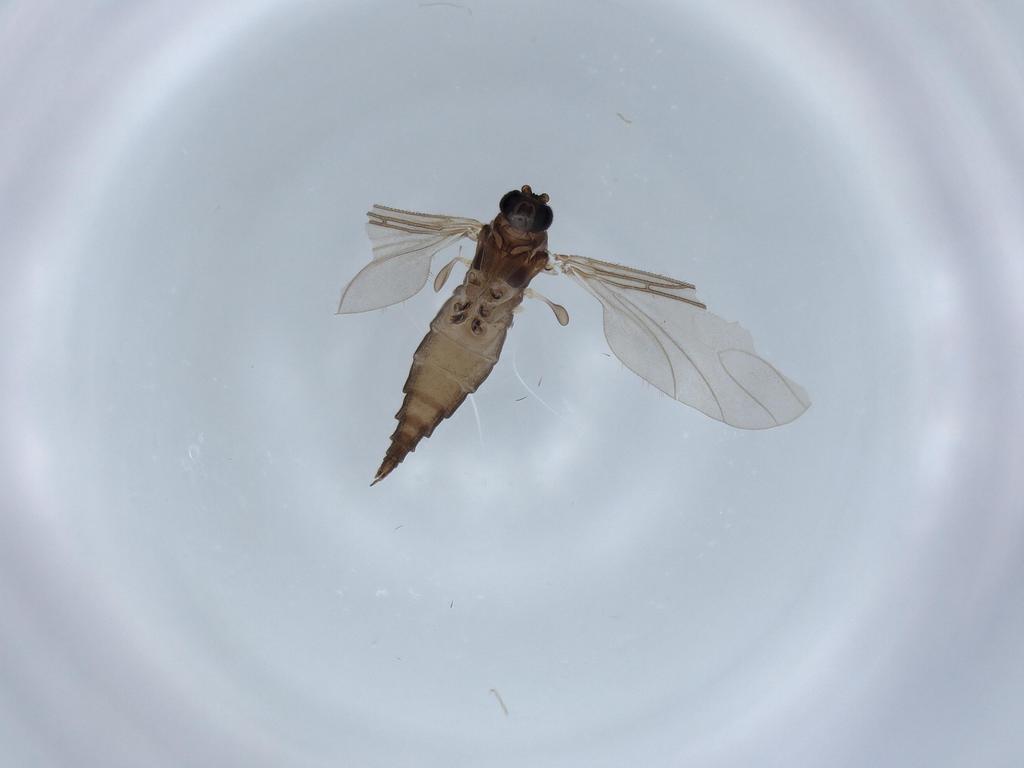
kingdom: Animalia
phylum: Arthropoda
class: Insecta
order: Diptera
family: Sciaridae
